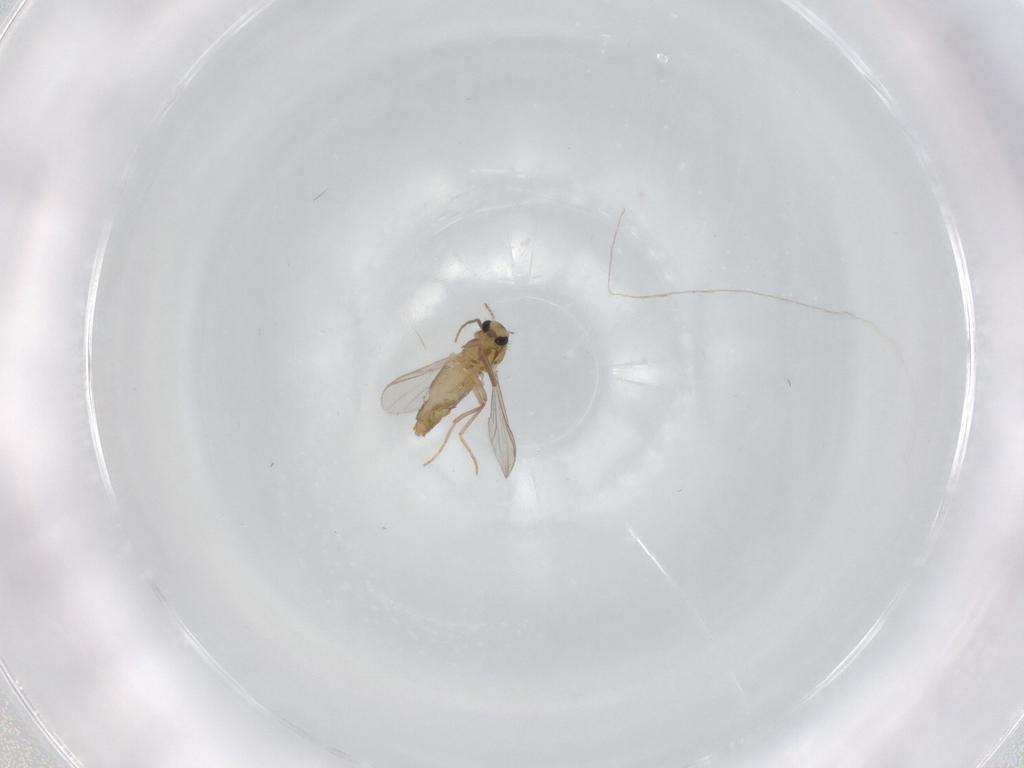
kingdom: Animalia
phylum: Arthropoda
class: Insecta
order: Diptera
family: Chironomidae
